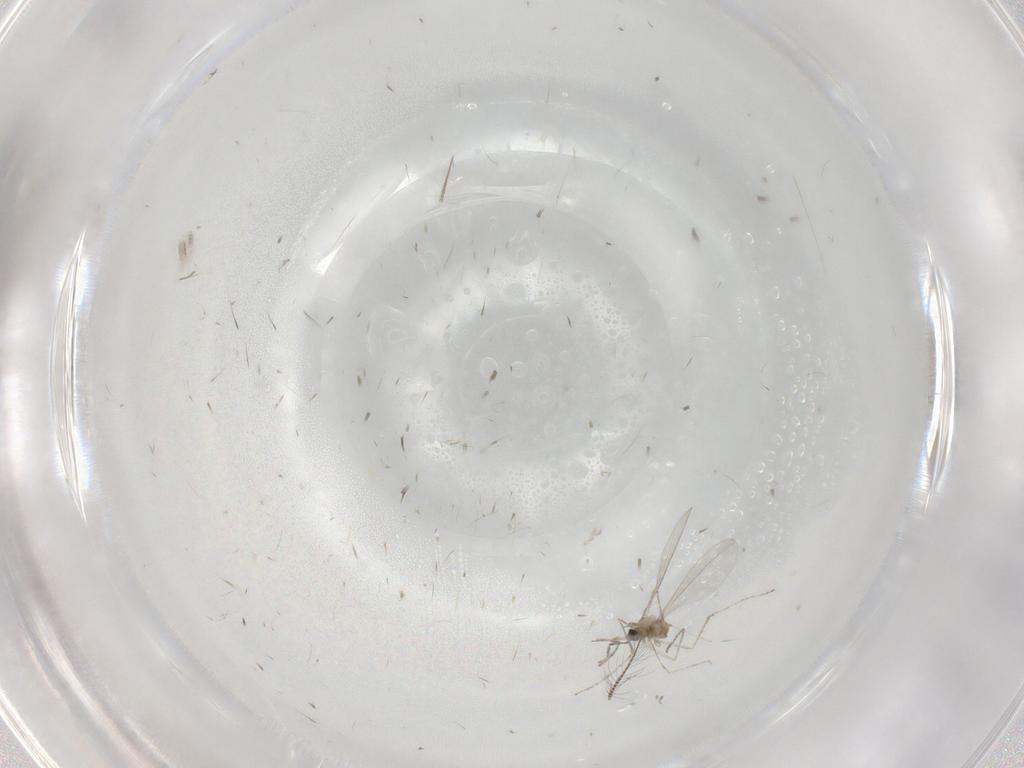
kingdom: Animalia
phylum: Arthropoda
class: Insecta
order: Diptera
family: Cecidomyiidae
